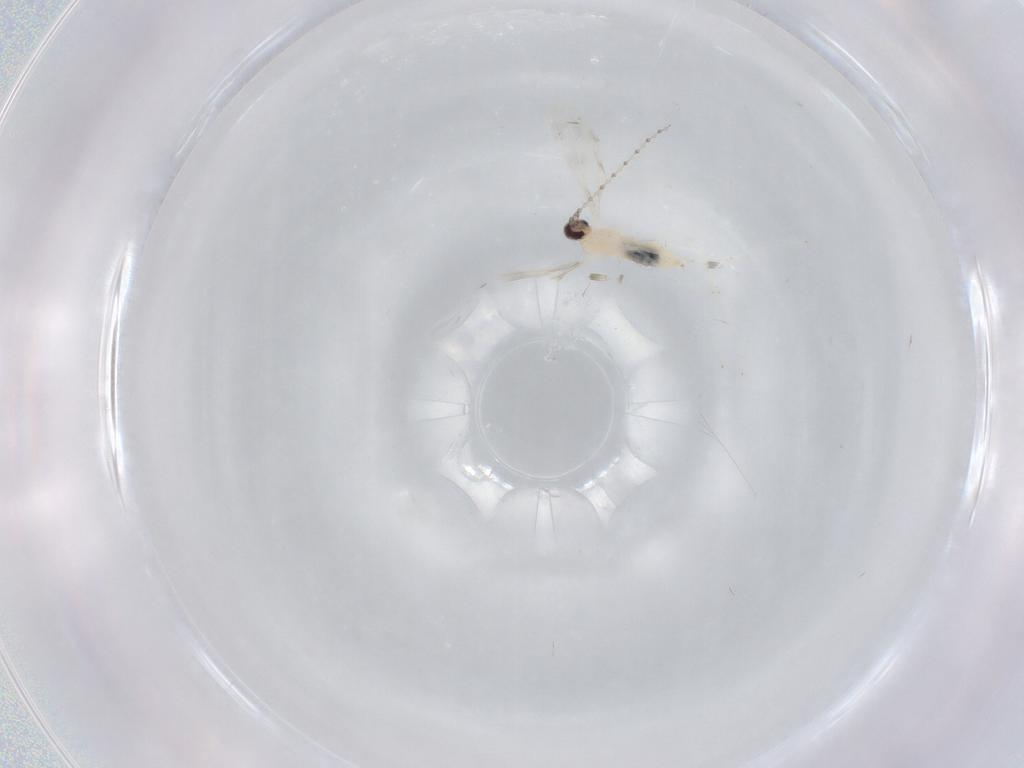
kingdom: Animalia
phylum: Arthropoda
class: Insecta
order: Diptera
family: Cecidomyiidae
